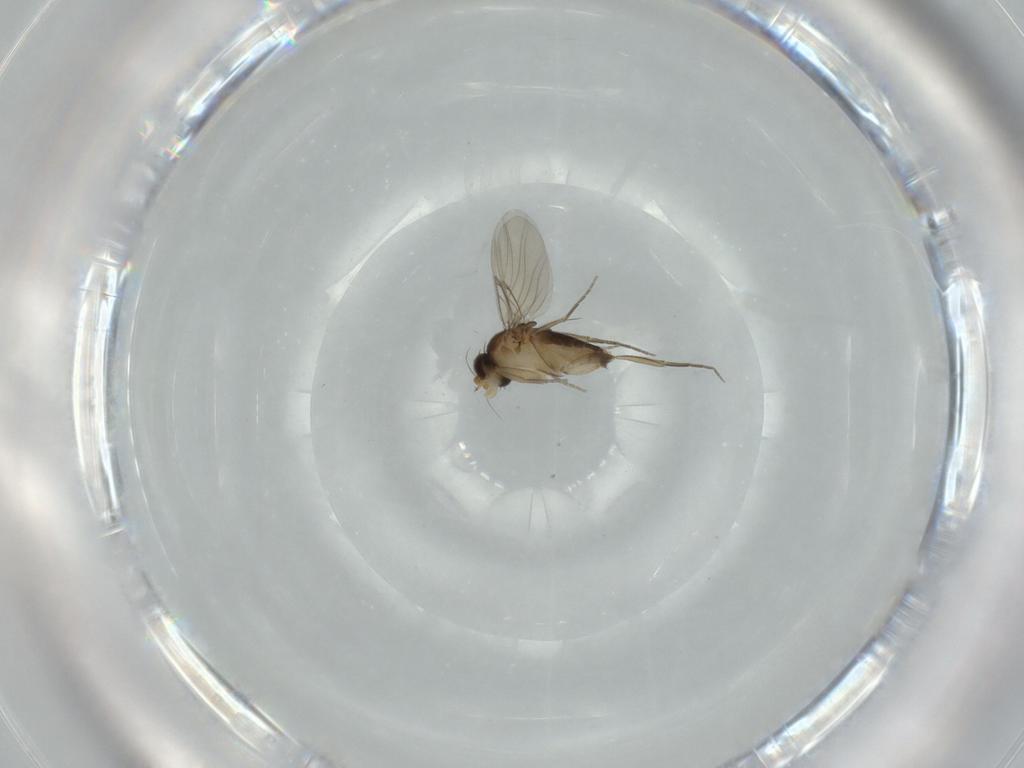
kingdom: Animalia
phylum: Arthropoda
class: Insecta
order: Diptera
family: Phoridae
